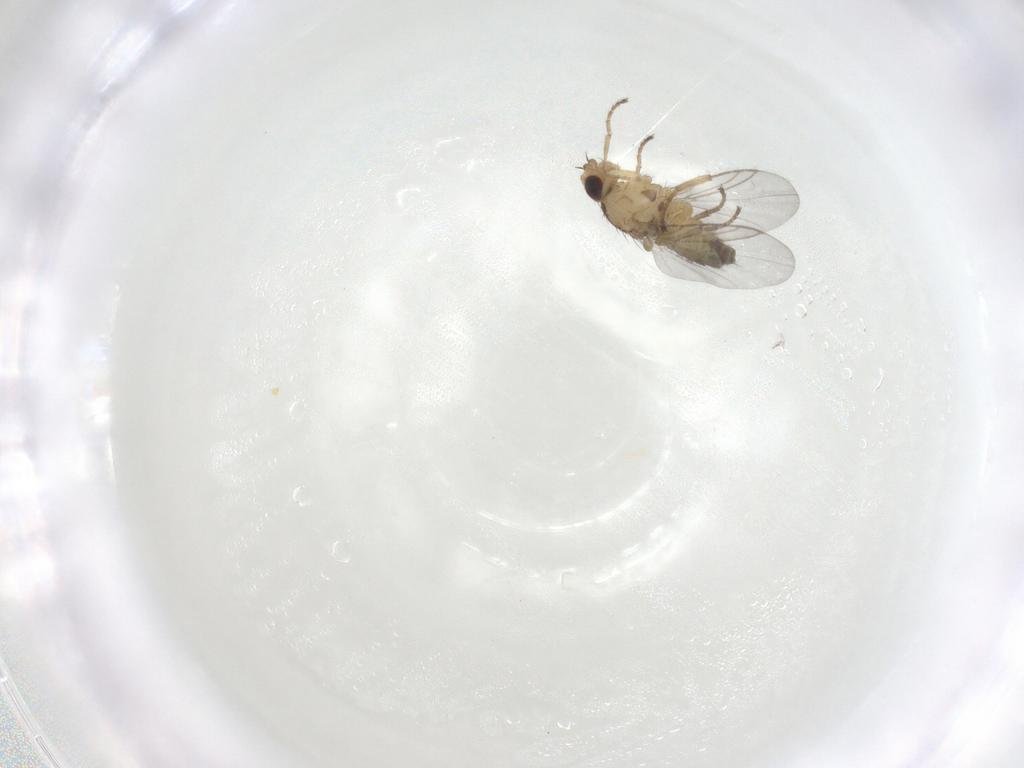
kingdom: Animalia
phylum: Arthropoda
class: Insecta
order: Diptera
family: Agromyzidae
